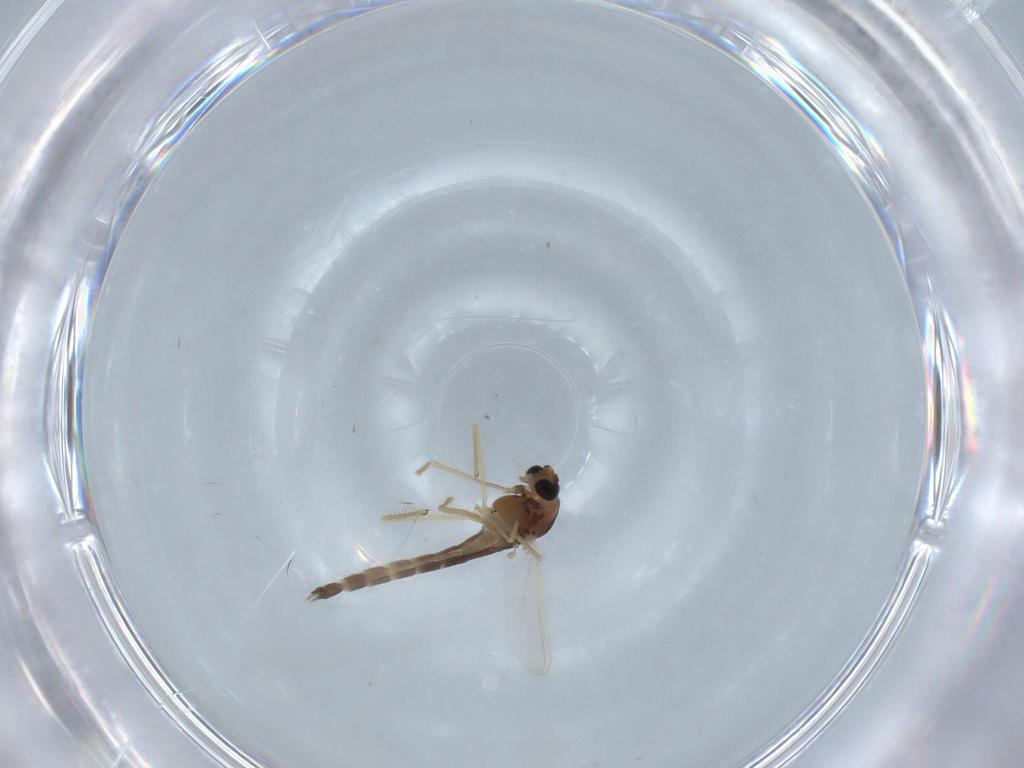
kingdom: Animalia
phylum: Arthropoda
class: Insecta
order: Diptera
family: Chironomidae
